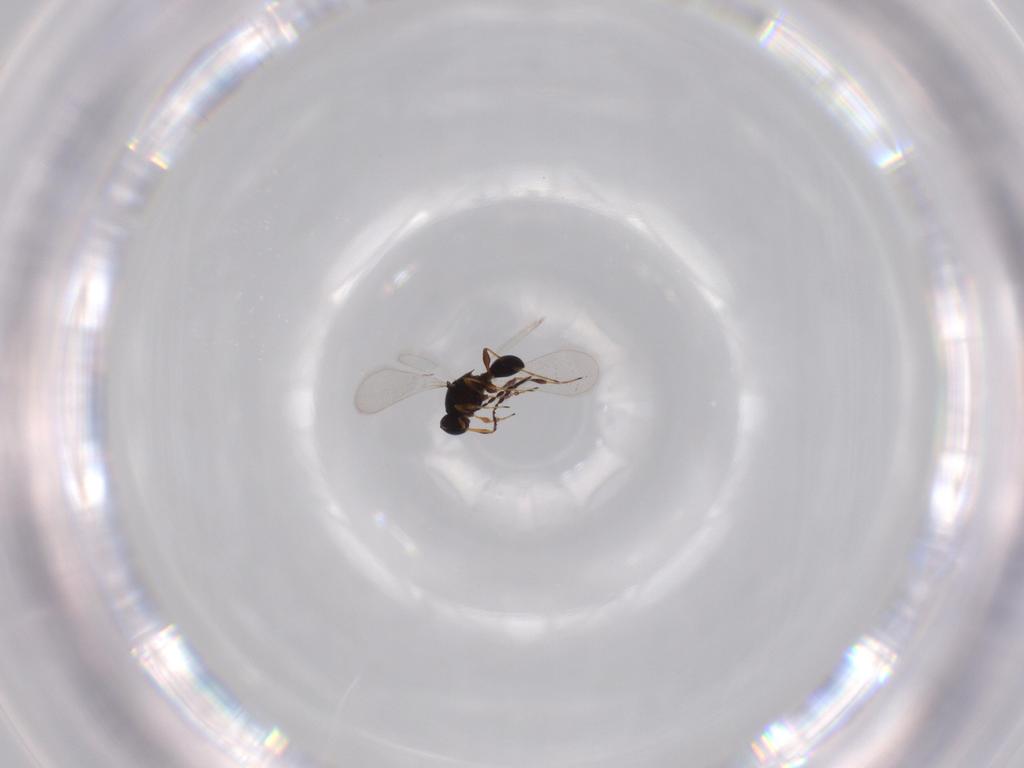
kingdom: Animalia
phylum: Arthropoda
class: Insecta
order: Hymenoptera
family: Platygastridae
